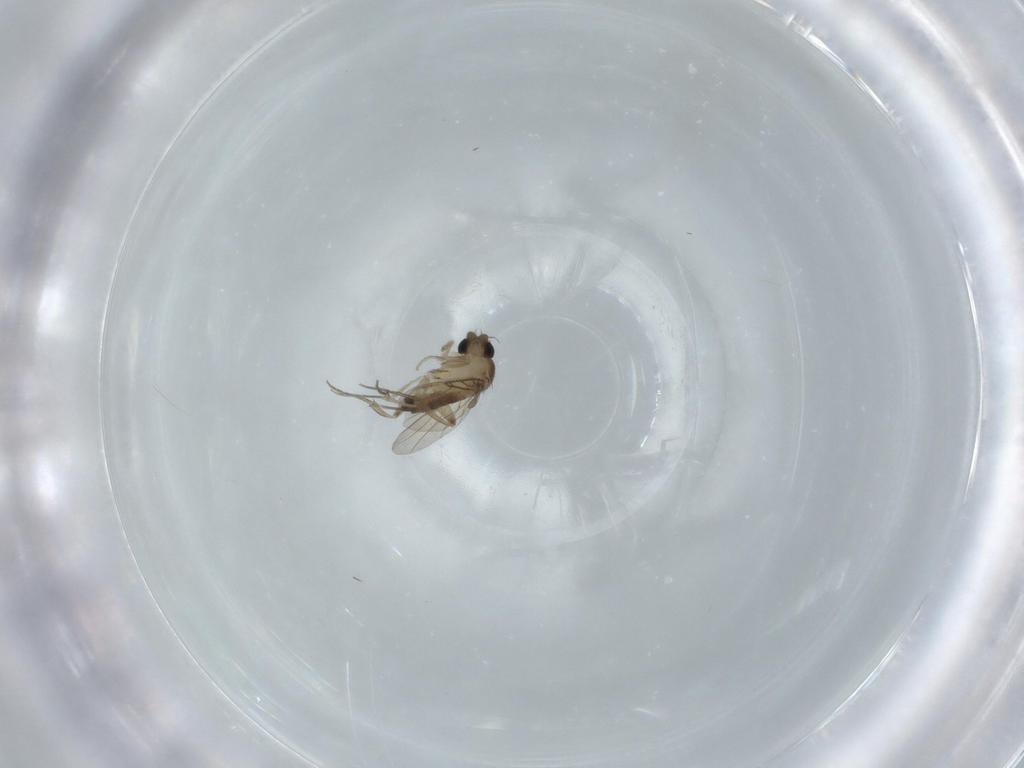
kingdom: Animalia
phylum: Arthropoda
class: Insecta
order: Diptera
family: Phoridae
